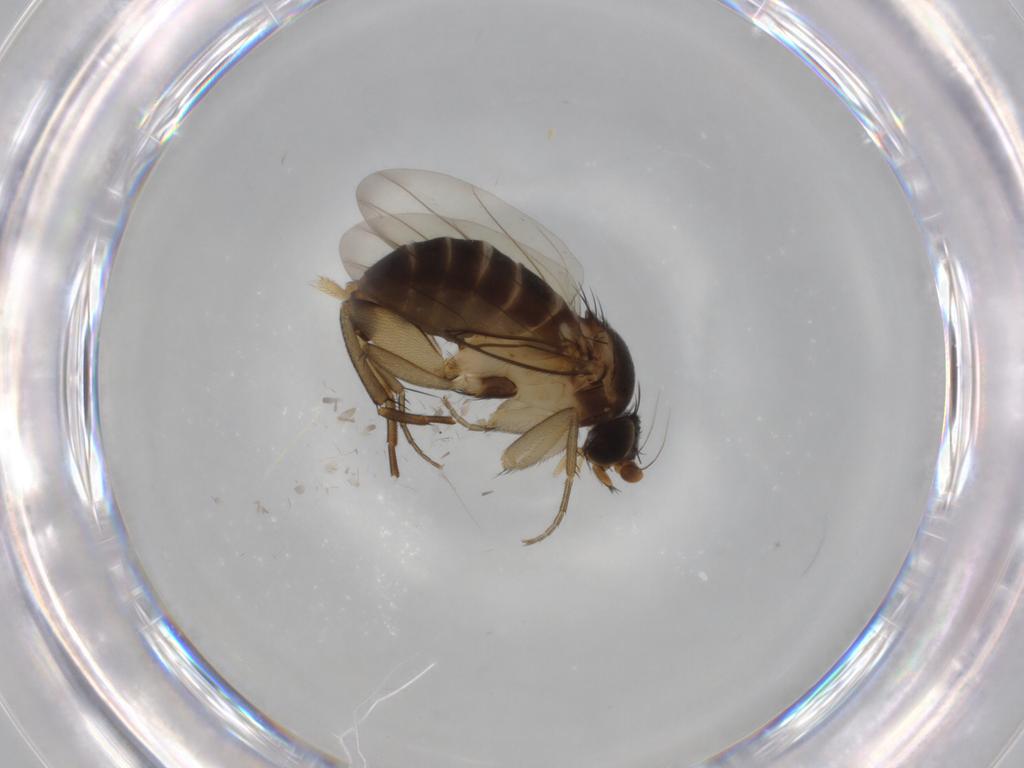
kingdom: Animalia
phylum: Arthropoda
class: Insecta
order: Diptera
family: Phoridae
